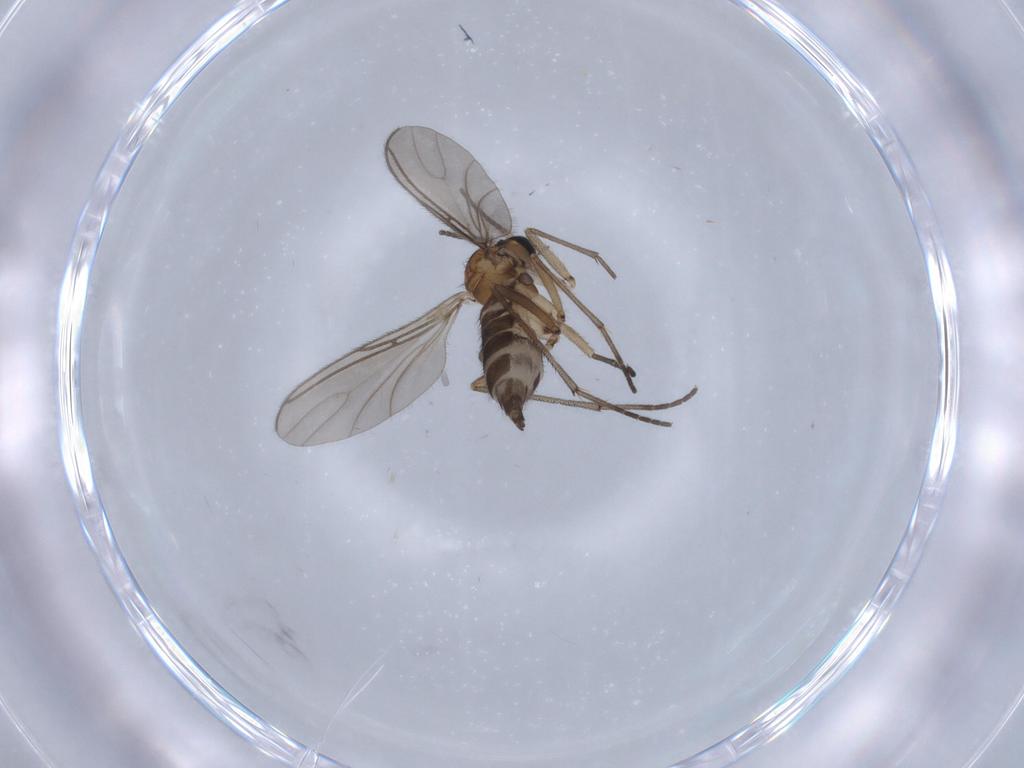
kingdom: Animalia
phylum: Arthropoda
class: Insecta
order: Diptera
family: Sciaridae
